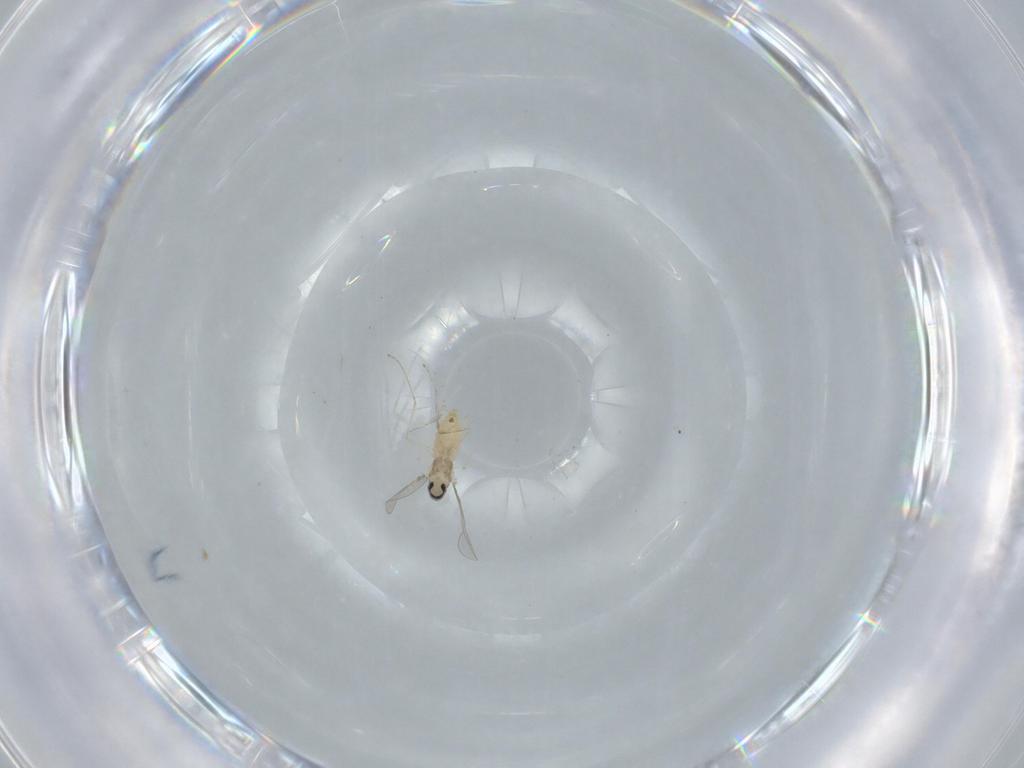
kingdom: Animalia
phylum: Arthropoda
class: Insecta
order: Diptera
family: Cecidomyiidae
